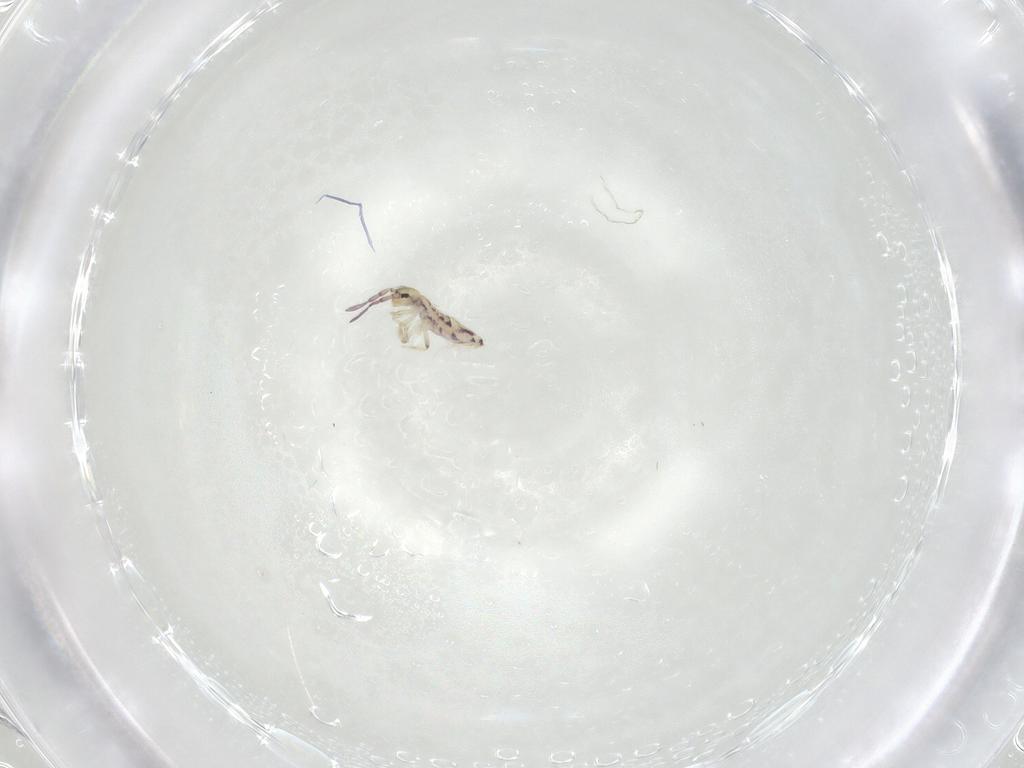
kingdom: Animalia
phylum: Arthropoda
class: Collembola
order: Entomobryomorpha
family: Entomobryidae
